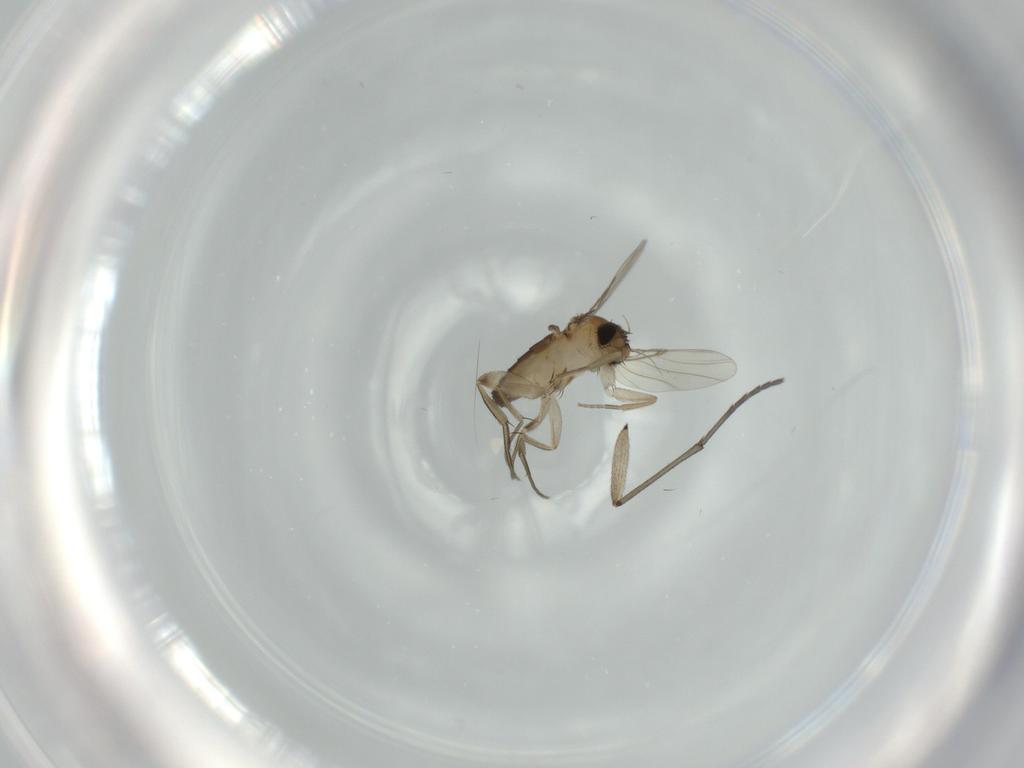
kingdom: Animalia
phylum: Arthropoda
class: Insecta
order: Diptera
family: Phoridae
